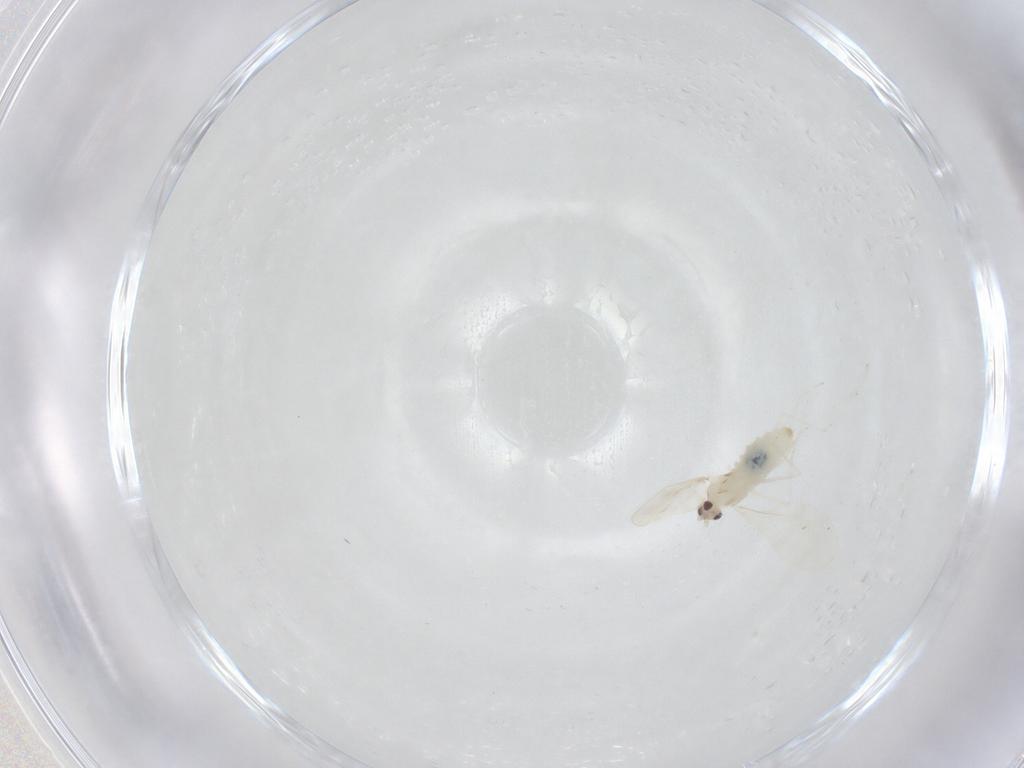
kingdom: Animalia
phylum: Arthropoda
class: Insecta
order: Diptera
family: Cecidomyiidae
